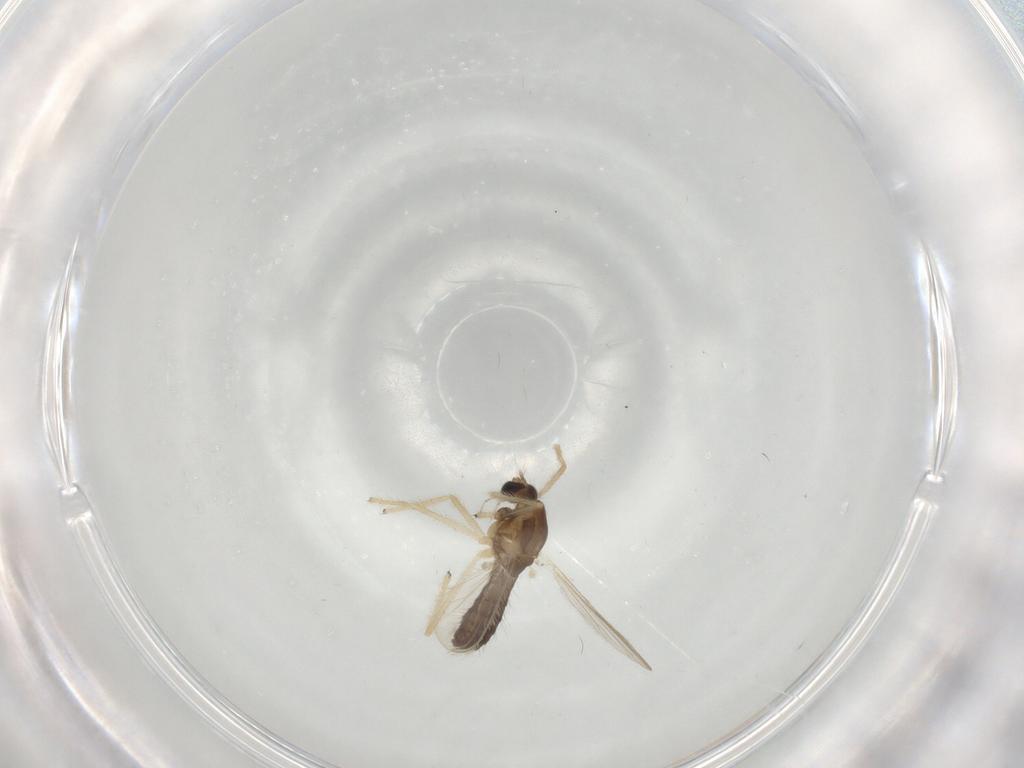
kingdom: Animalia
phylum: Arthropoda
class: Insecta
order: Diptera
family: Chironomidae
